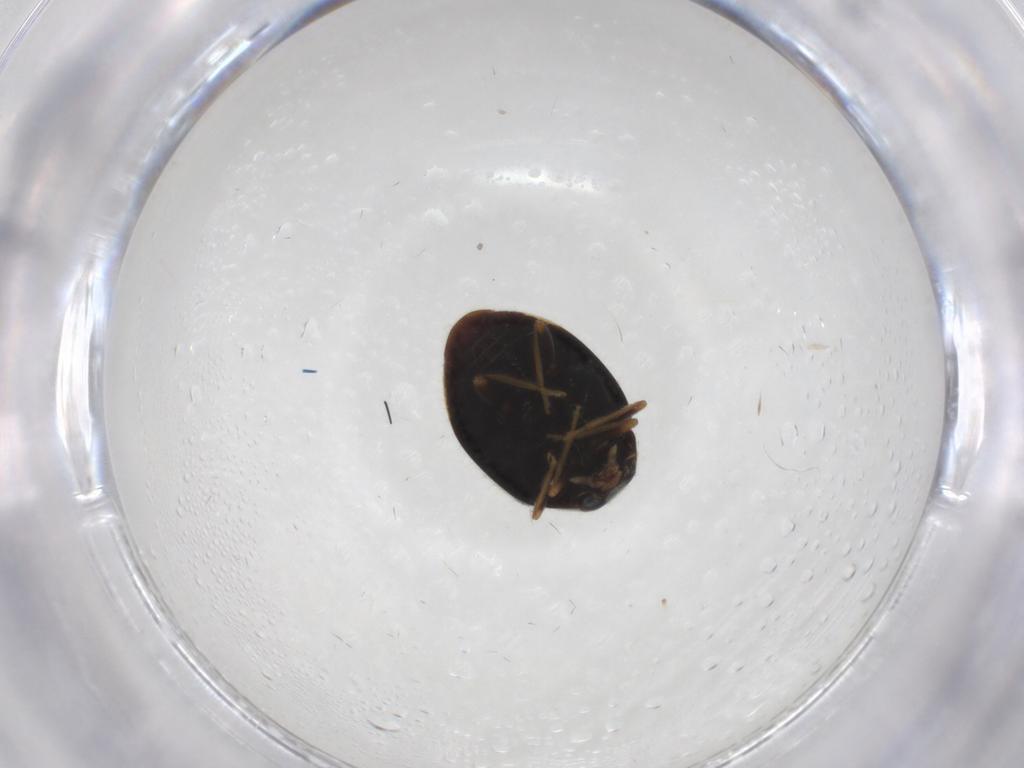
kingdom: Animalia
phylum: Arthropoda
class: Insecta
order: Coleoptera
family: Coccinellidae
